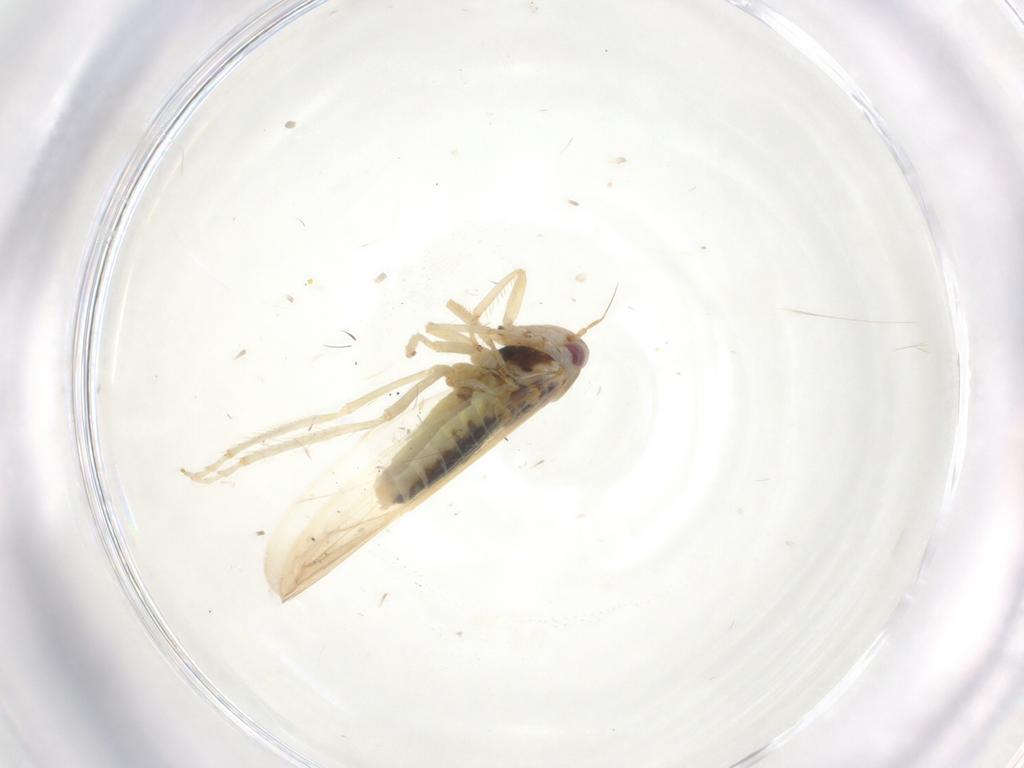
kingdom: Animalia
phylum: Arthropoda
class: Insecta
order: Hemiptera
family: Cicadellidae
